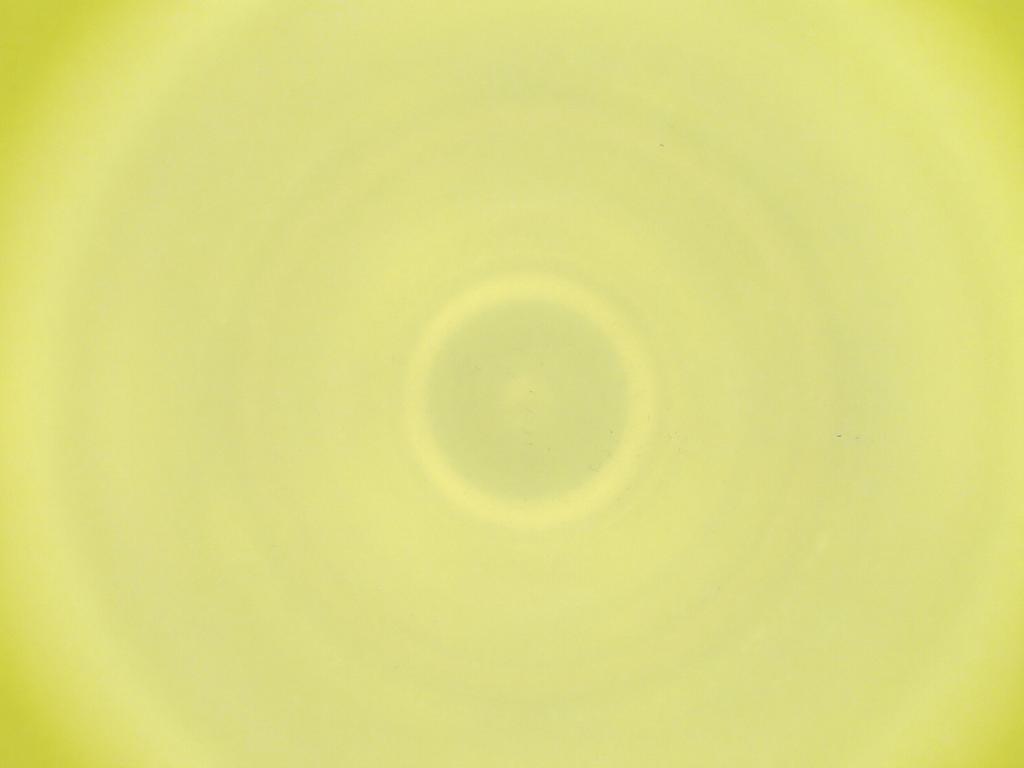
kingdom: Animalia
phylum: Arthropoda
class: Insecta
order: Diptera
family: Cecidomyiidae
